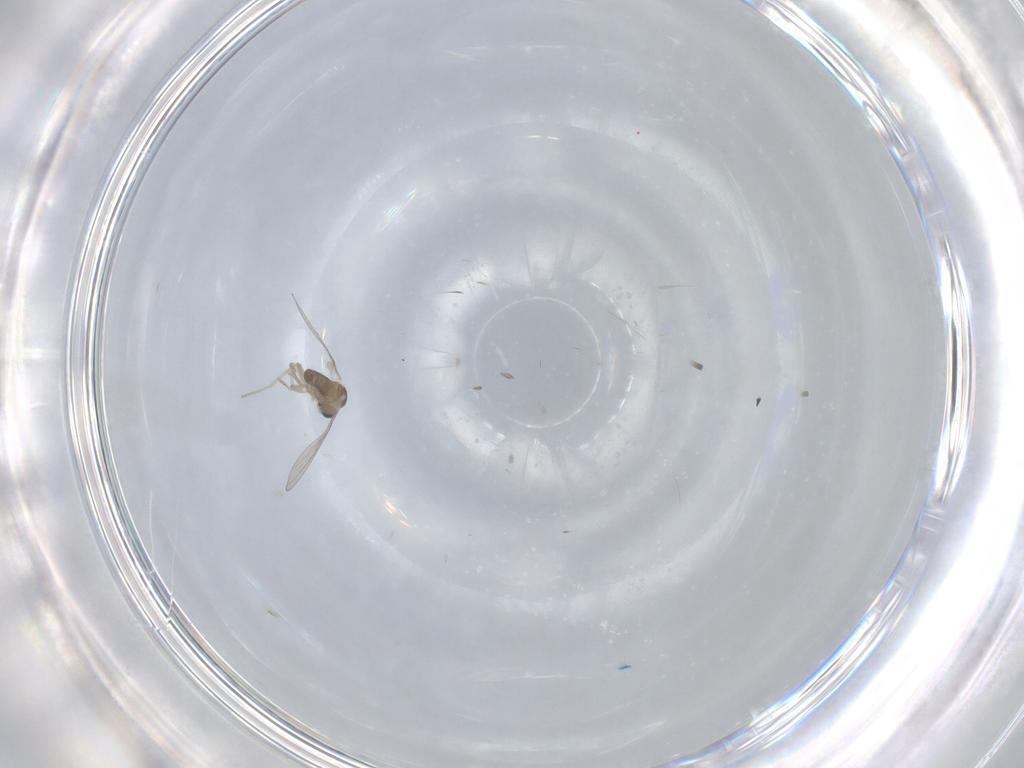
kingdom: Animalia
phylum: Arthropoda
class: Insecta
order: Diptera
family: Cecidomyiidae
